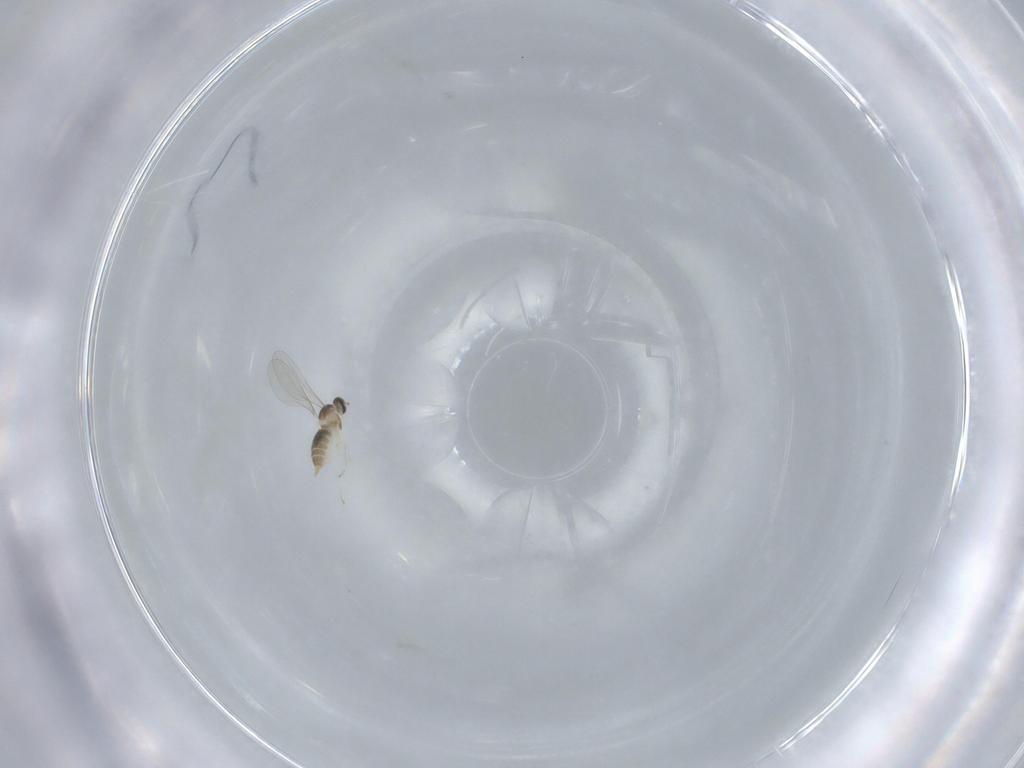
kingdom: Animalia
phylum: Arthropoda
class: Insecta
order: Diptera
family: Cecidomyiidae
